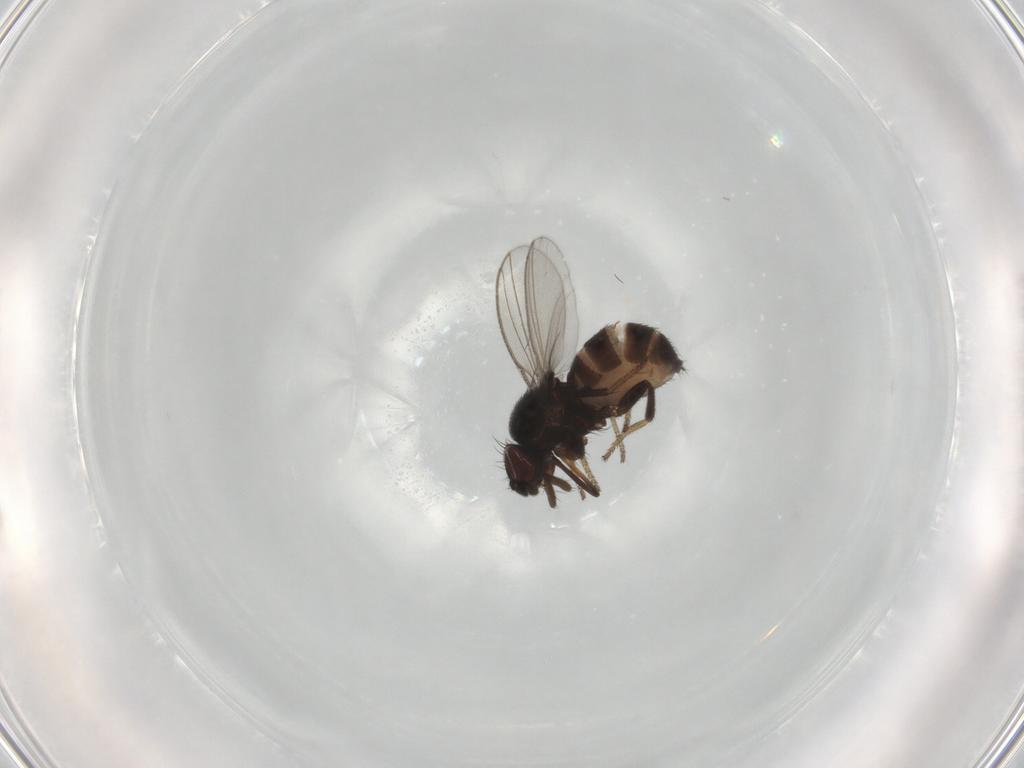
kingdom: Animalia
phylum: Arthropoda
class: Insecta
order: Diptera
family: Milichiidae
